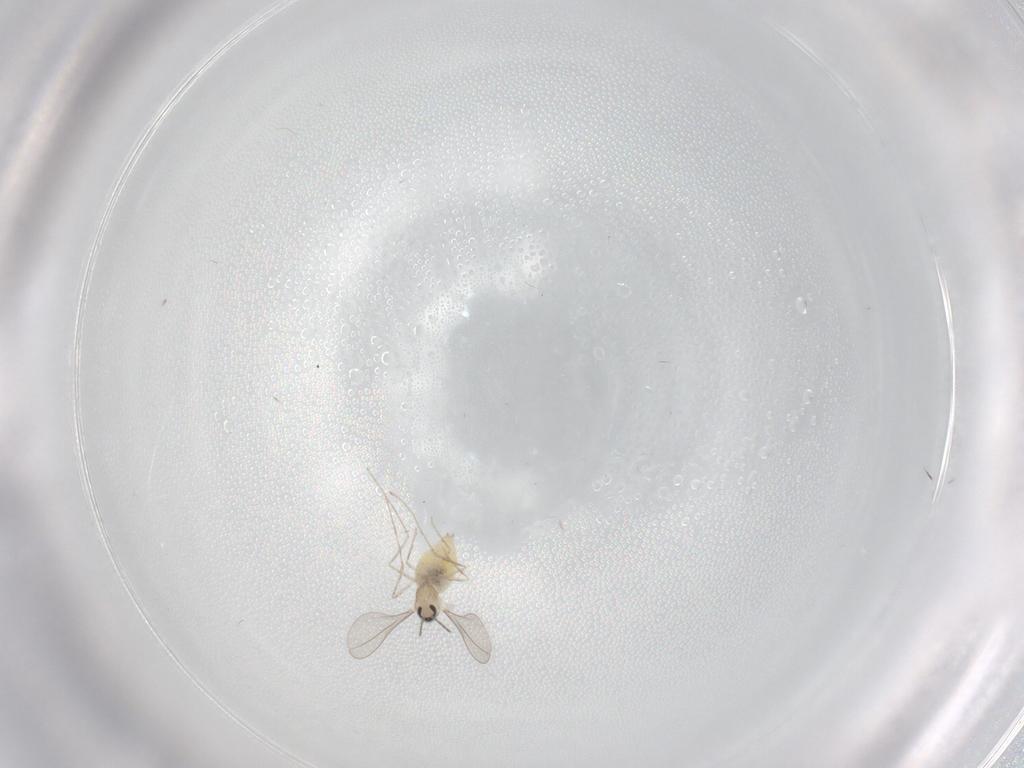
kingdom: Animalia
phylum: Arthropoda
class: Insecta
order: Diptera
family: Cecidomyiidae
